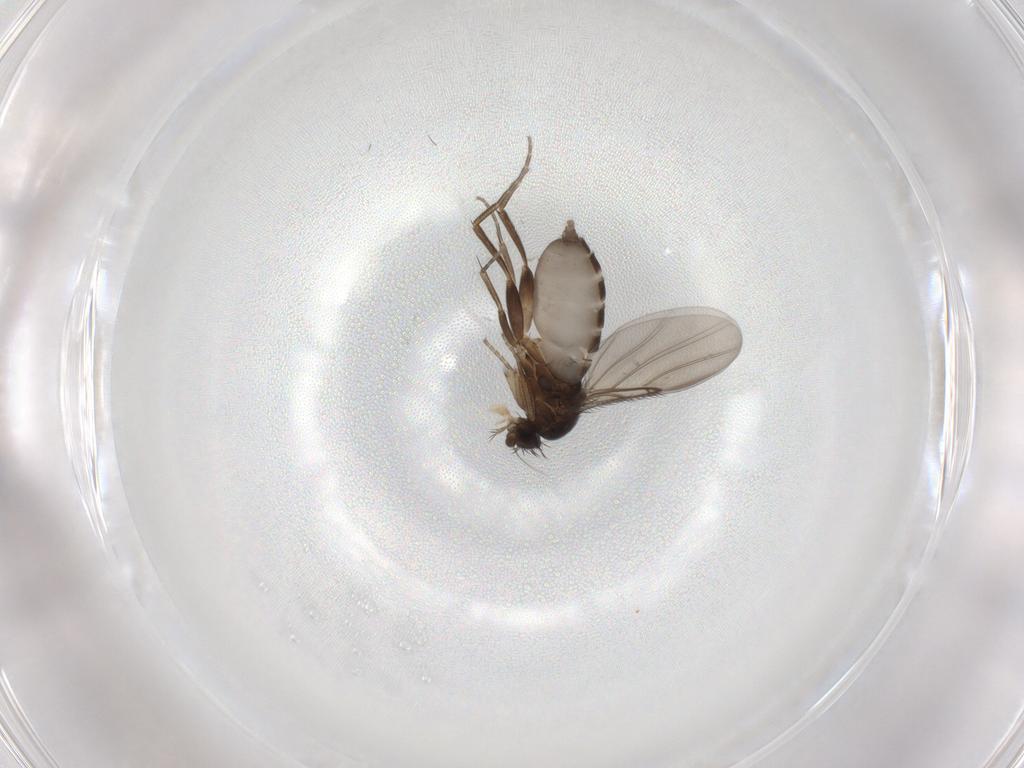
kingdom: Animalia
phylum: Arthropoda
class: Insecta
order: Diptera
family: Phoridae
